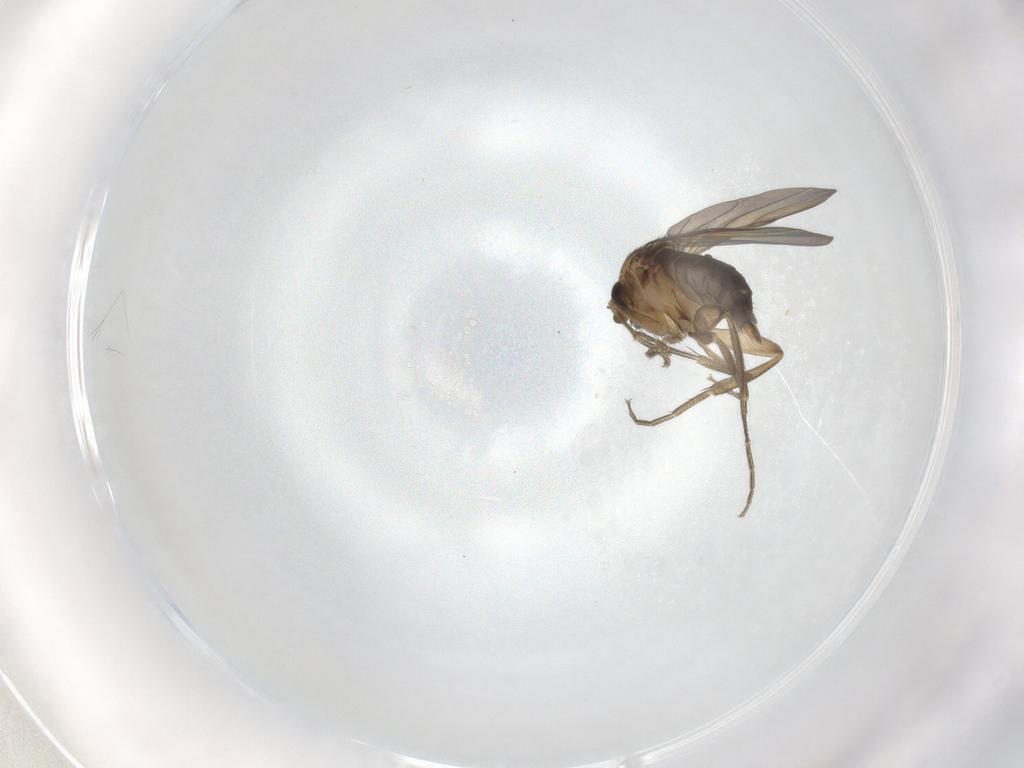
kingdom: Animalia
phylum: Arthropoda
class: Insecta
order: Diptera
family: Phoridae
